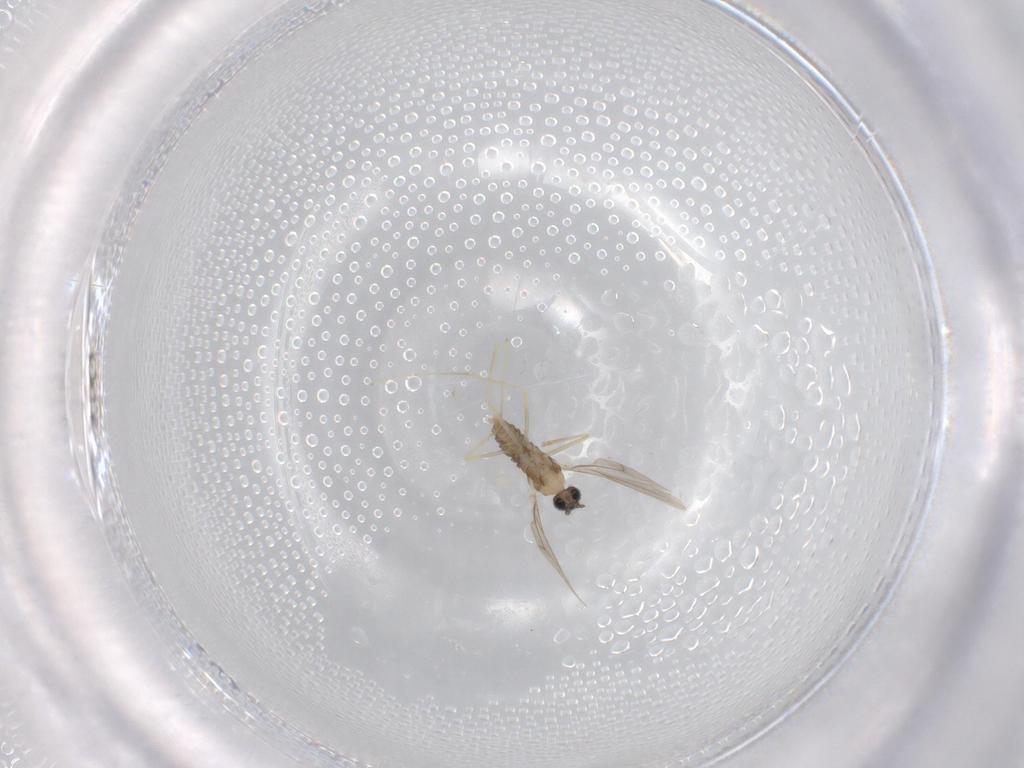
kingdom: Animalia
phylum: Arthropoda
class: Insecta
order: Diptera
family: Cecidomyiidae
